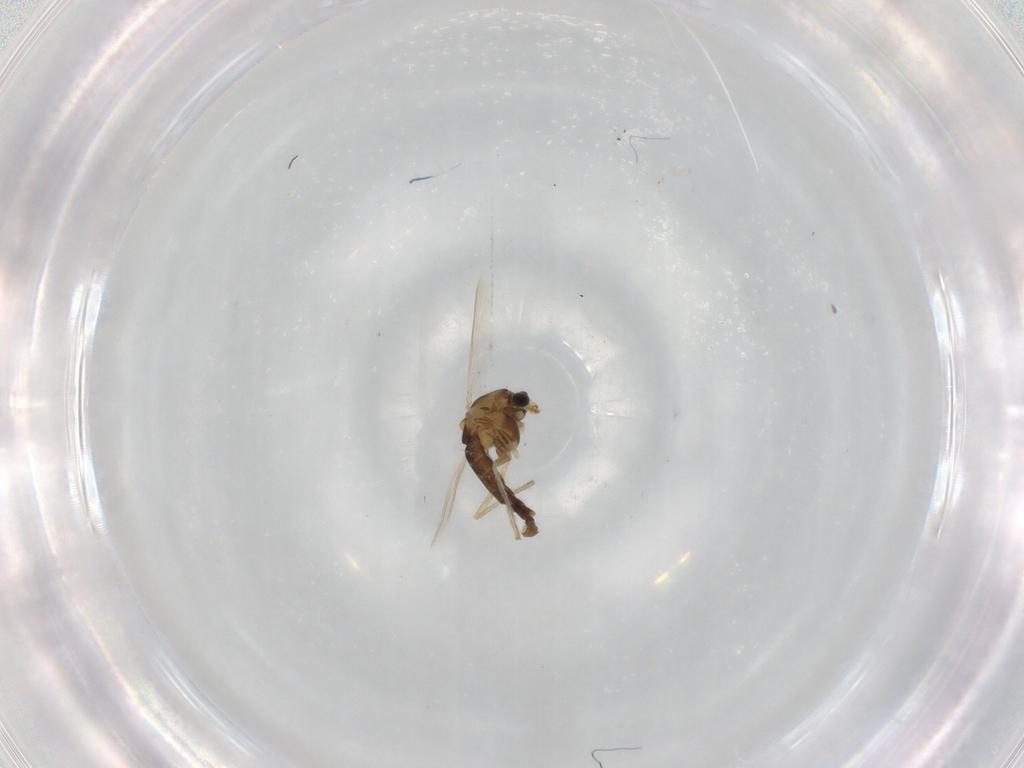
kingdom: Animalia
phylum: Arthropoda
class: Insecta
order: Diptera
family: Chironomidae
